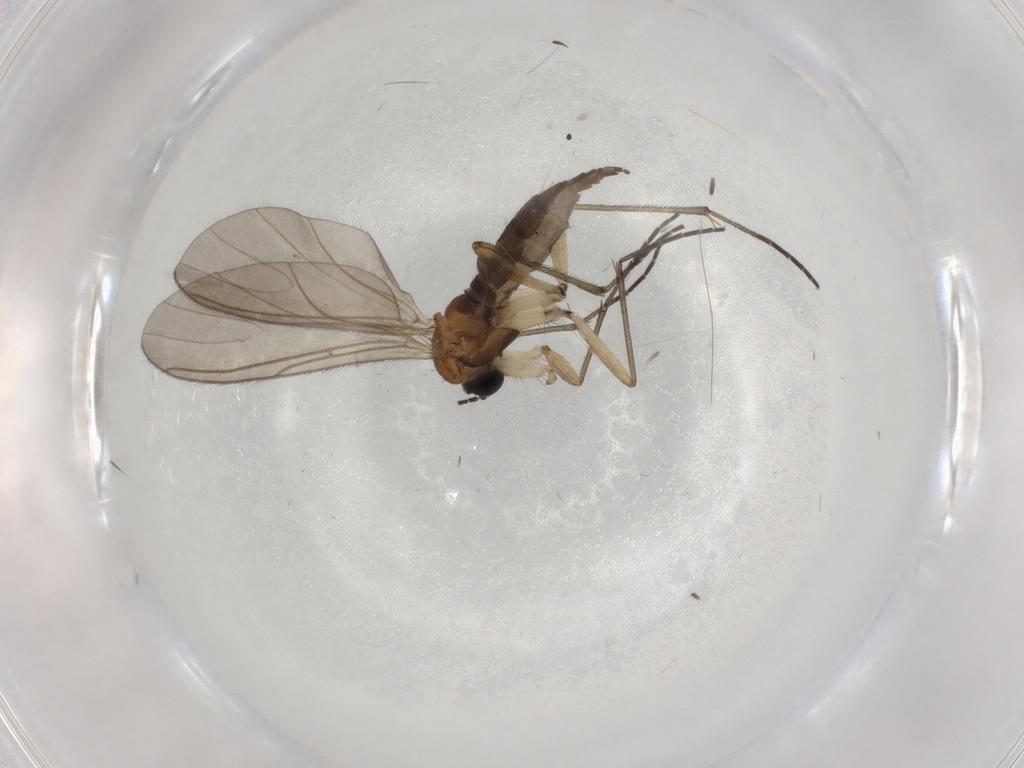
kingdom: Animalia
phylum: Arthropoda
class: Insecta
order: Diptera
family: Sciaridae
